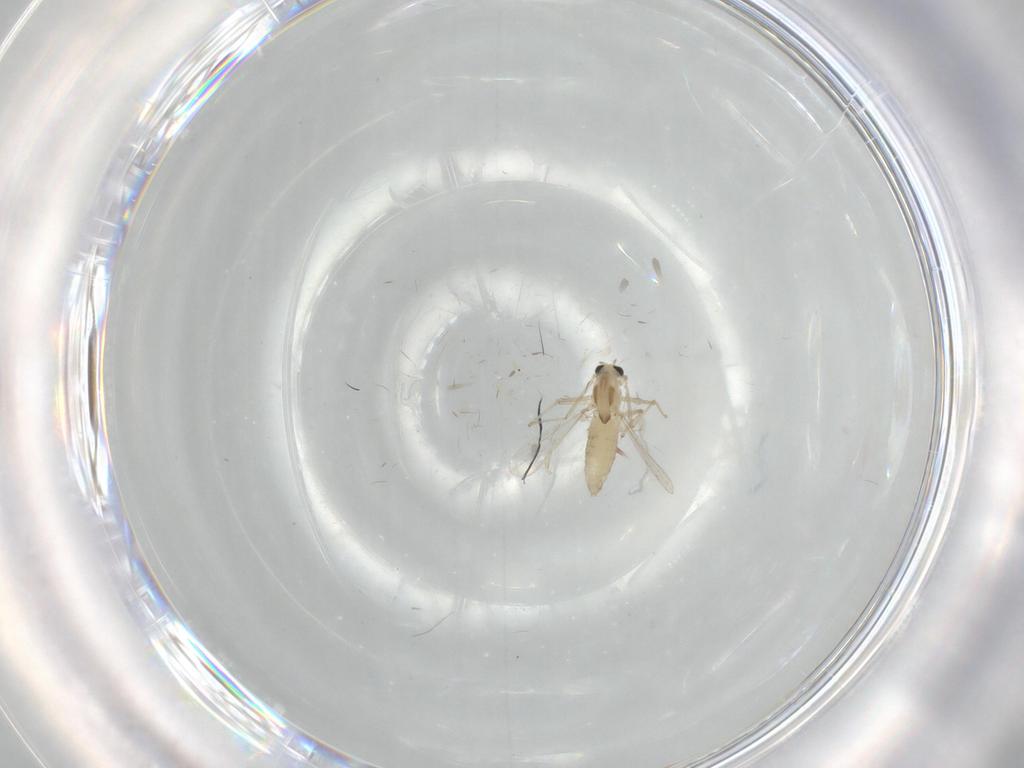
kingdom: Animalia
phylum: Arthropoda
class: Insecta
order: Diptera
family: Chironomidae
